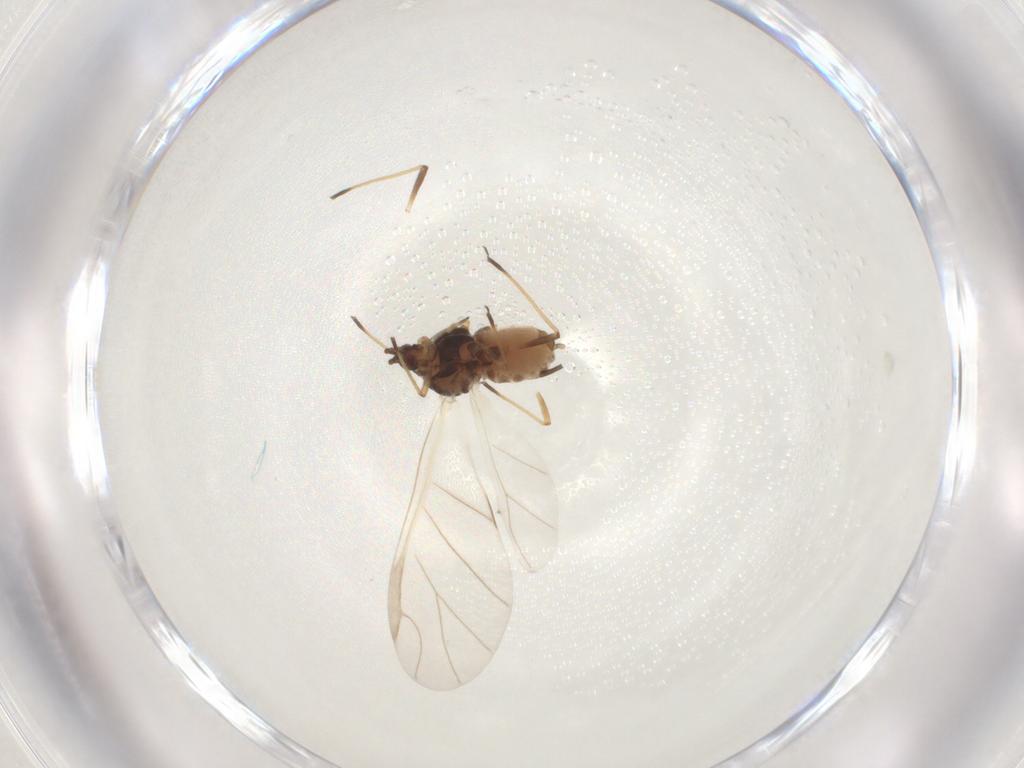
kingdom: Animalia
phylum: Arthropoda
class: Insecta
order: Hemiptera
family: Aphididae
